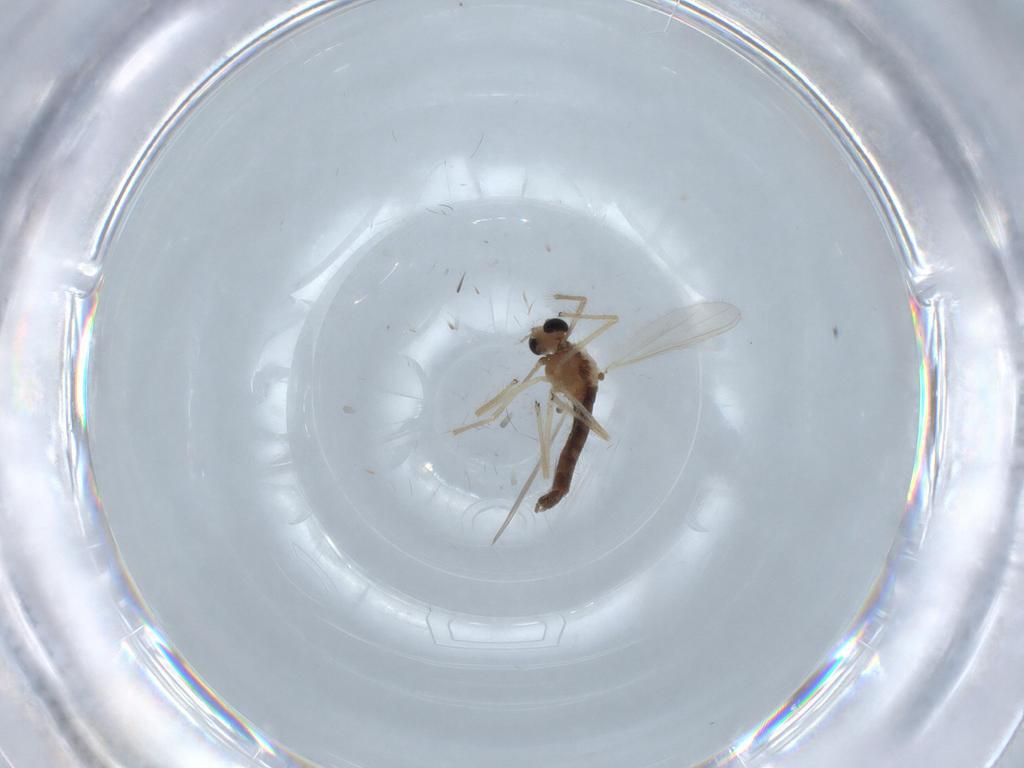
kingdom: Animalia
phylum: Arthropoda
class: Insecta
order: Diptera
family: Chironomidae
